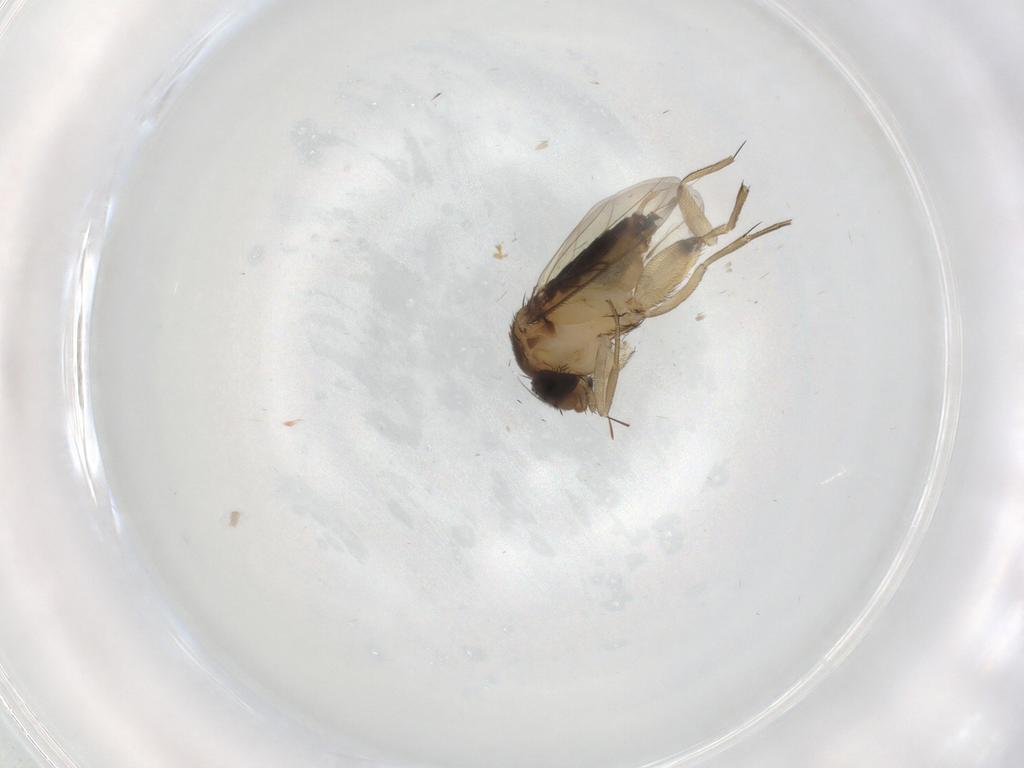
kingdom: Animalia
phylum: Arthropoda
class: Insecta
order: Diptera
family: Phoridae
